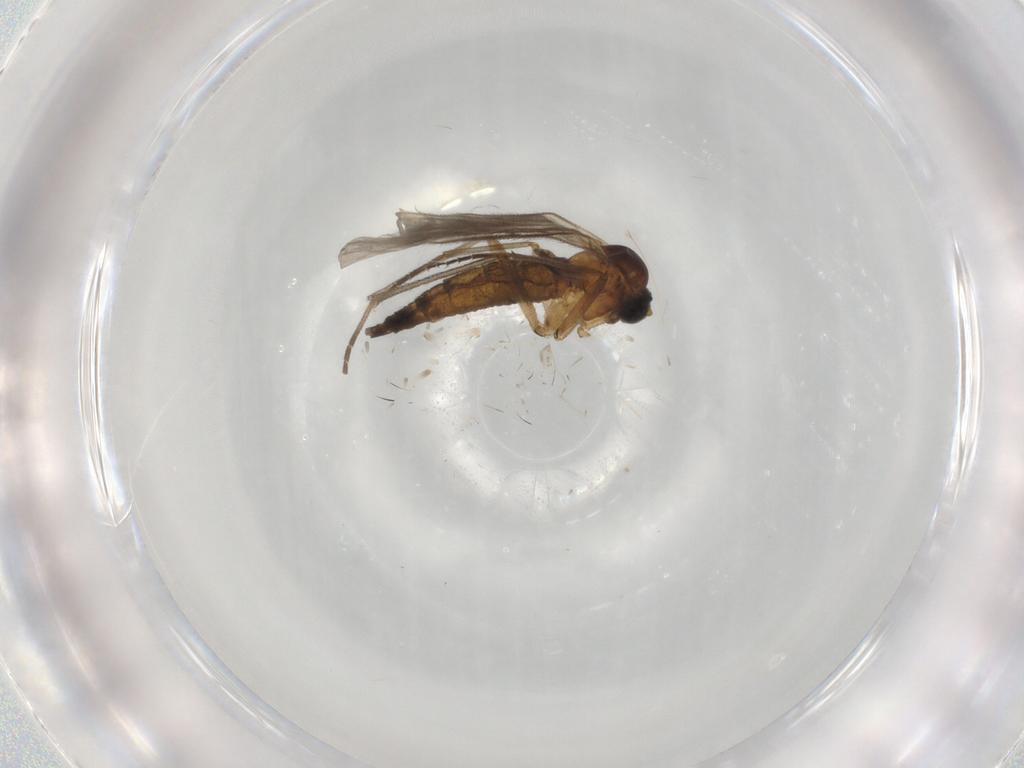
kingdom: Animalia
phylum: Arthropoda
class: Insecta
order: Diptera
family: Sciaridae
